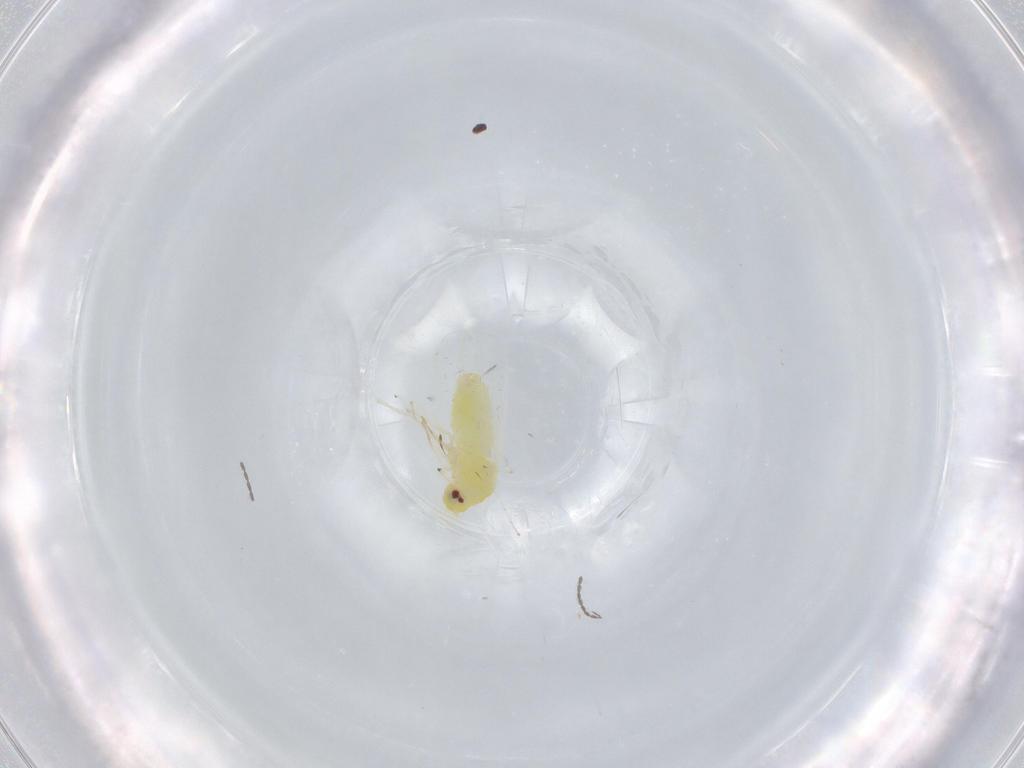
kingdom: Animalia
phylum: Arthropoda
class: Insecta
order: Hemiptera
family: Aleyrodidae
